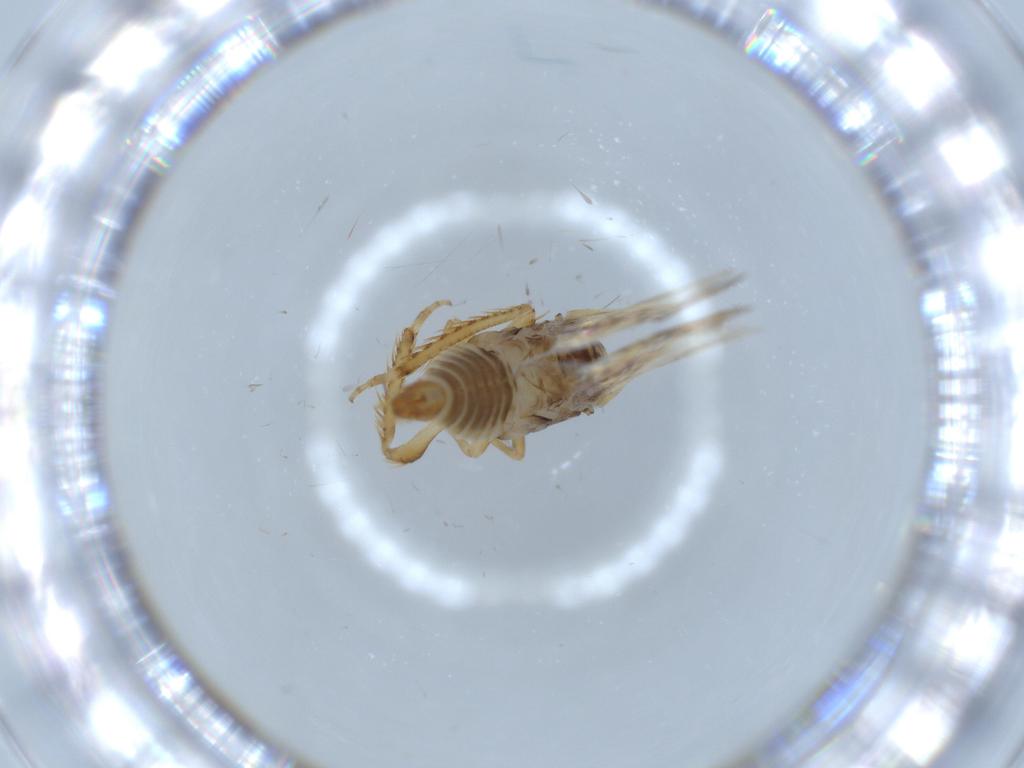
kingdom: Animalia
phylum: Arthropoda
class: Insecta
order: Hemiptera
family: Cicadellidae
